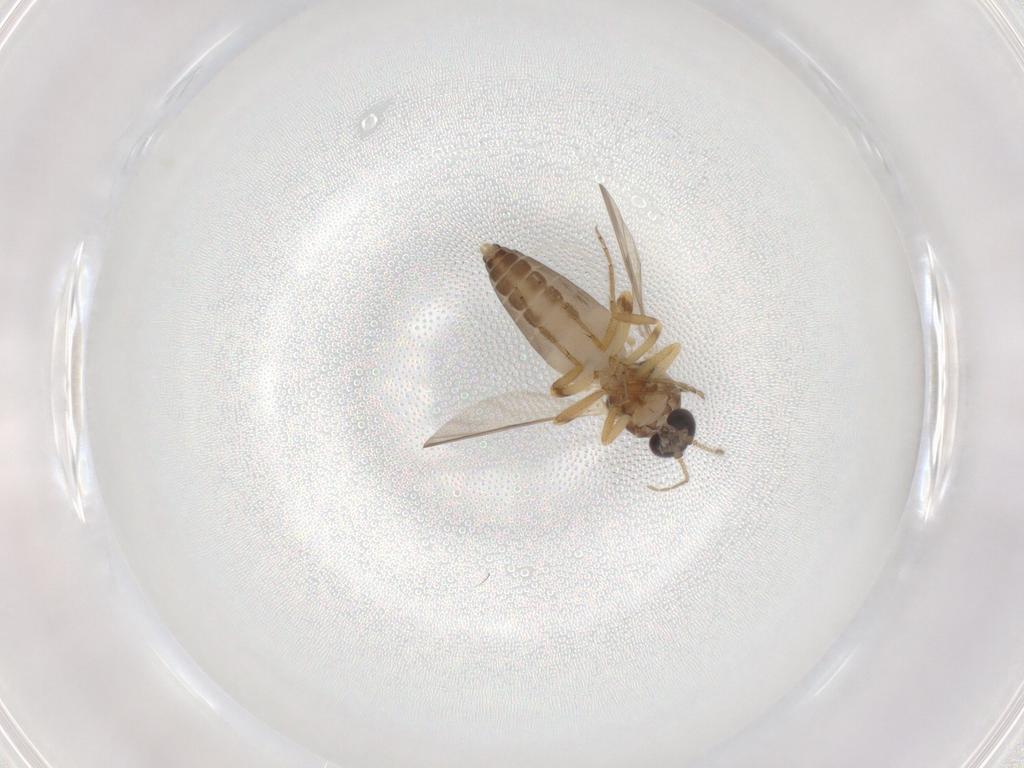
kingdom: Animalia
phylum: Arthropoda
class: Insecta
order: Diptera
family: Ceratopogonidae
